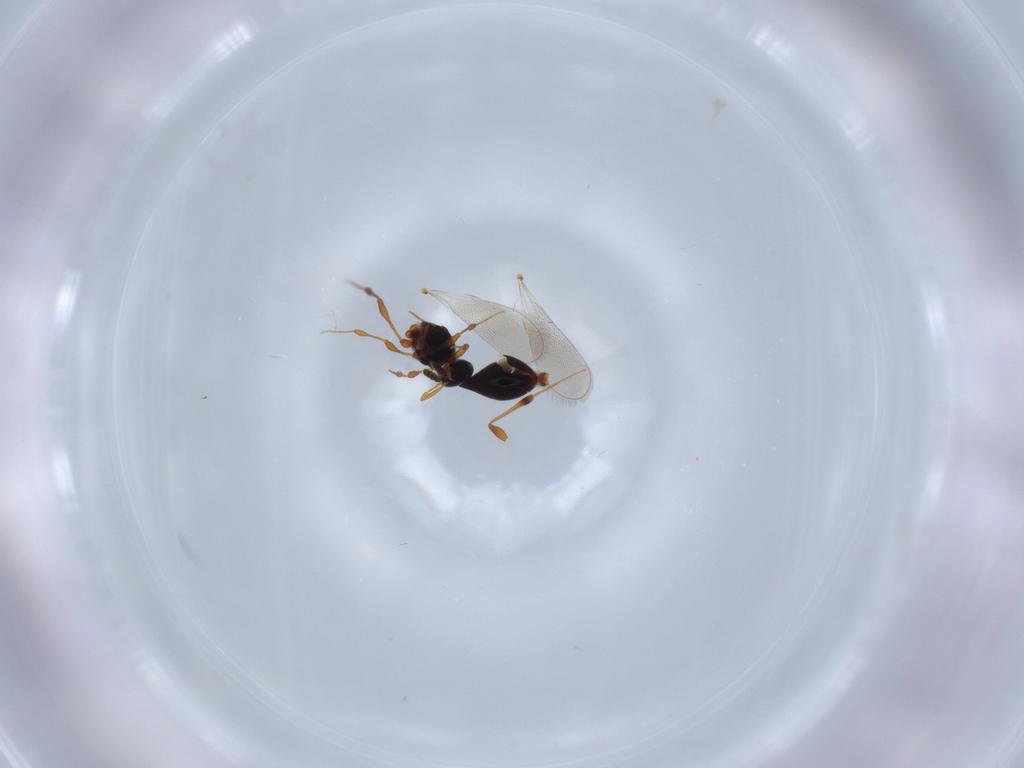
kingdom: Animalia
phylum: Arthropoda
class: Insecta
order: Hymenoptera
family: Platygastridae
